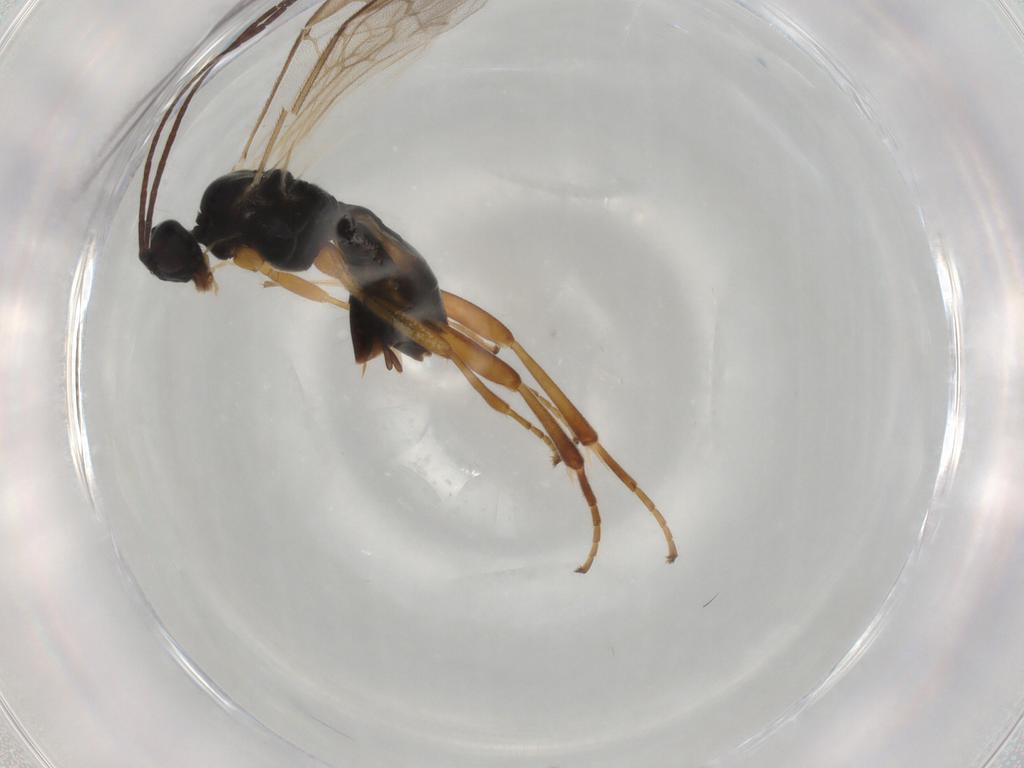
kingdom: Animalia
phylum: Arthropoda
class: Insecta
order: Hymenoptera
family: Braconidae
